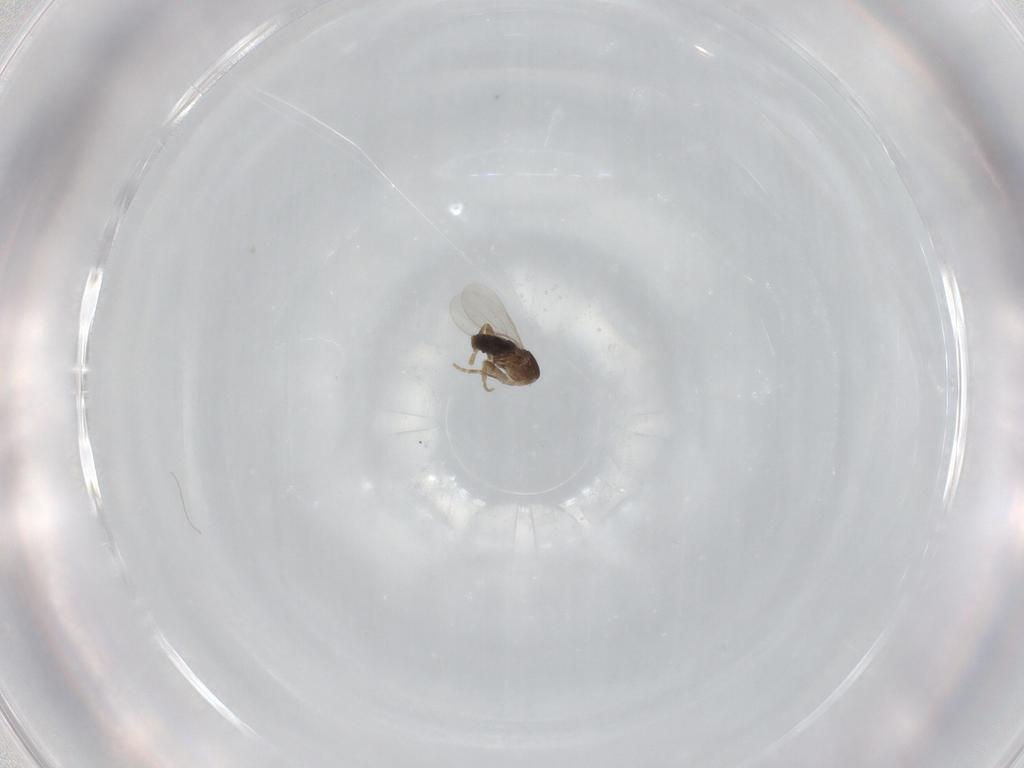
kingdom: Animalia
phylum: Arthropoda
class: Insecta
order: Diptera
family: Phoridae
